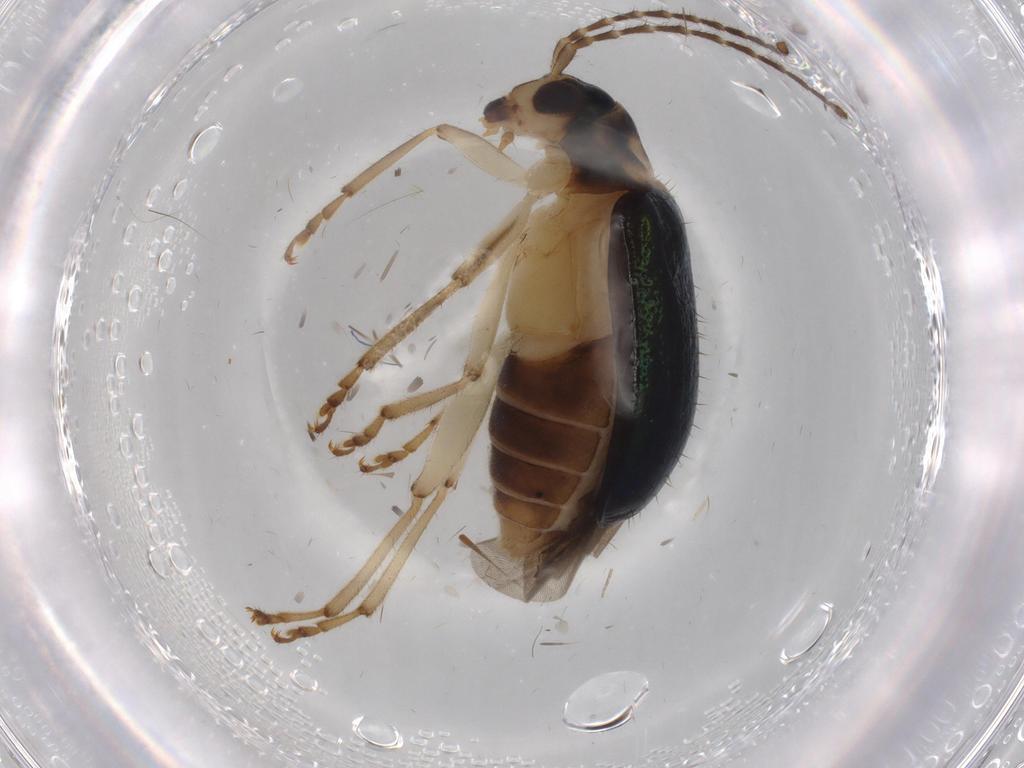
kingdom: Animalia
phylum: Arthropoda
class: Insecta
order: Coleoptera
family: Chrysomelidae
